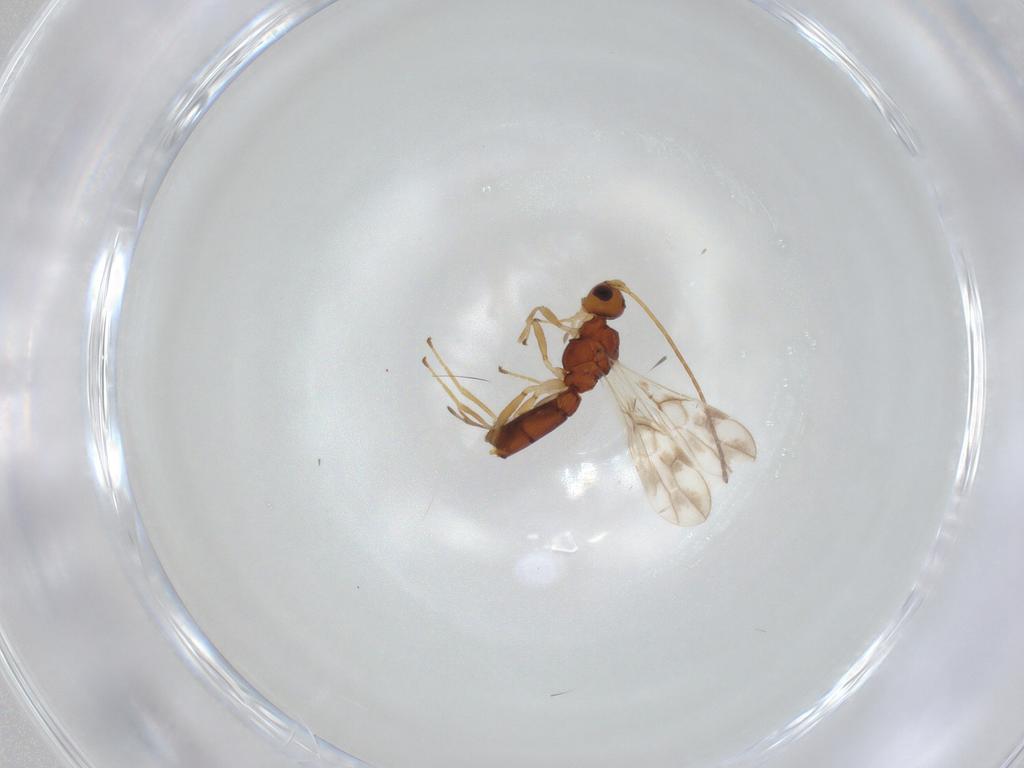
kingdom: Animalia
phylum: Arthropoda
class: Insecta
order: Hymenoptera
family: Braconidae
